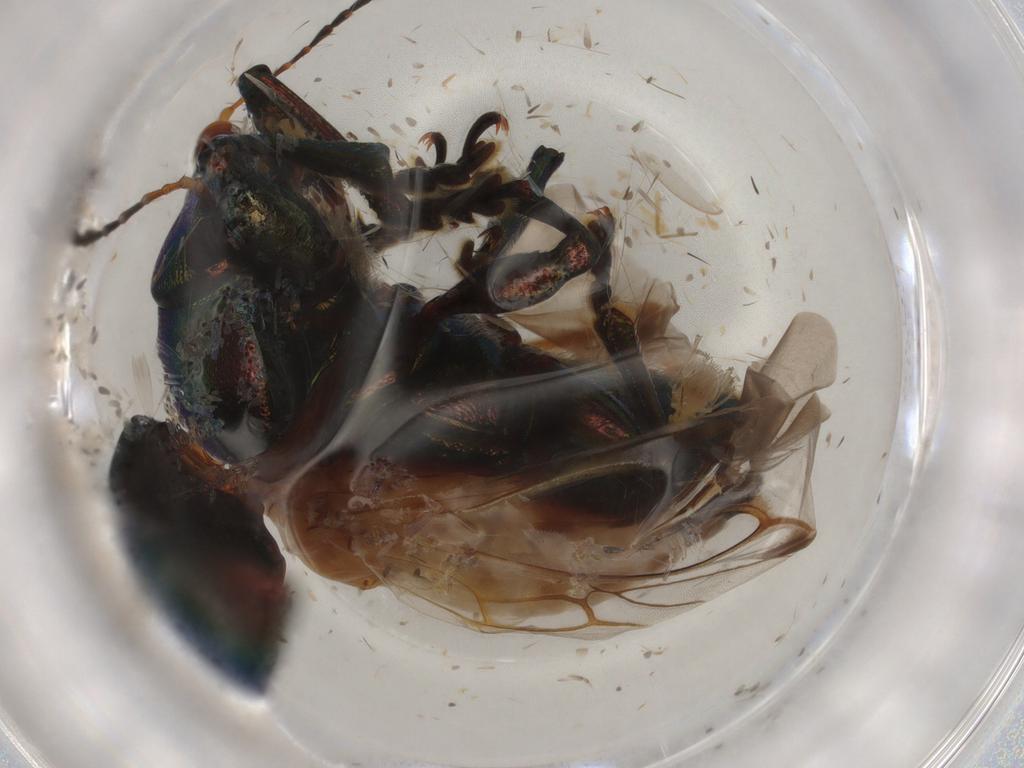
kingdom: Animalia
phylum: Arthropoda
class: Insecta
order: Coleoptera
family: Chrysomelidae
